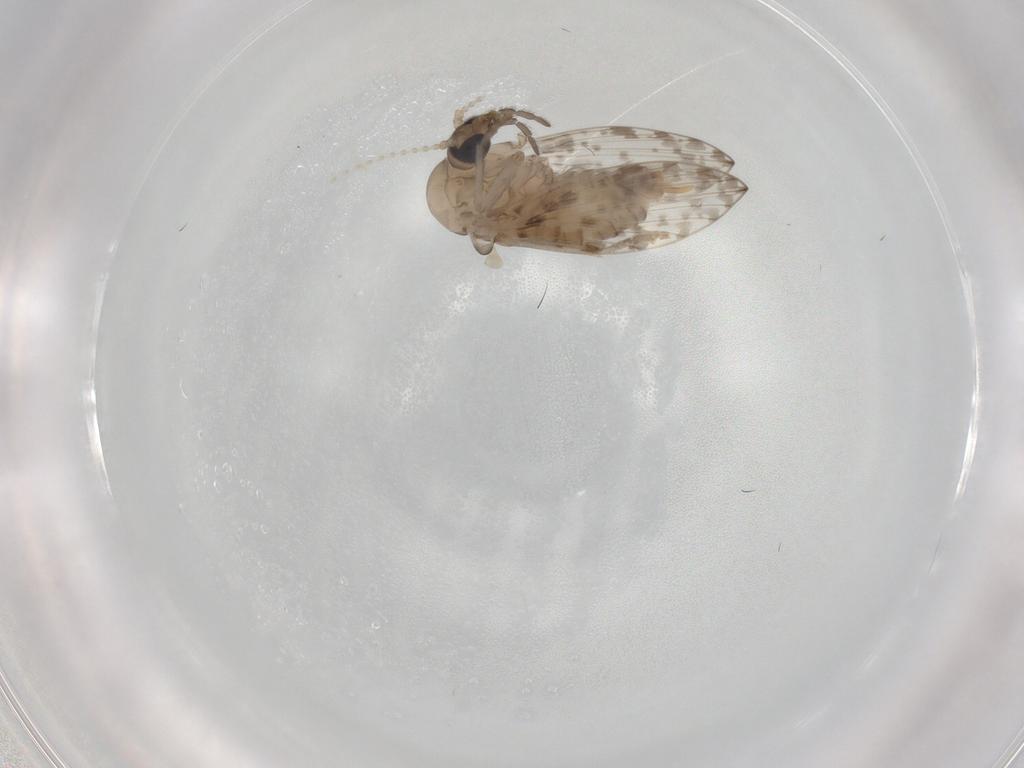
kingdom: Animalia
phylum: Arthropoda
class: Insecta
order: Diptera
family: Psychodidae
